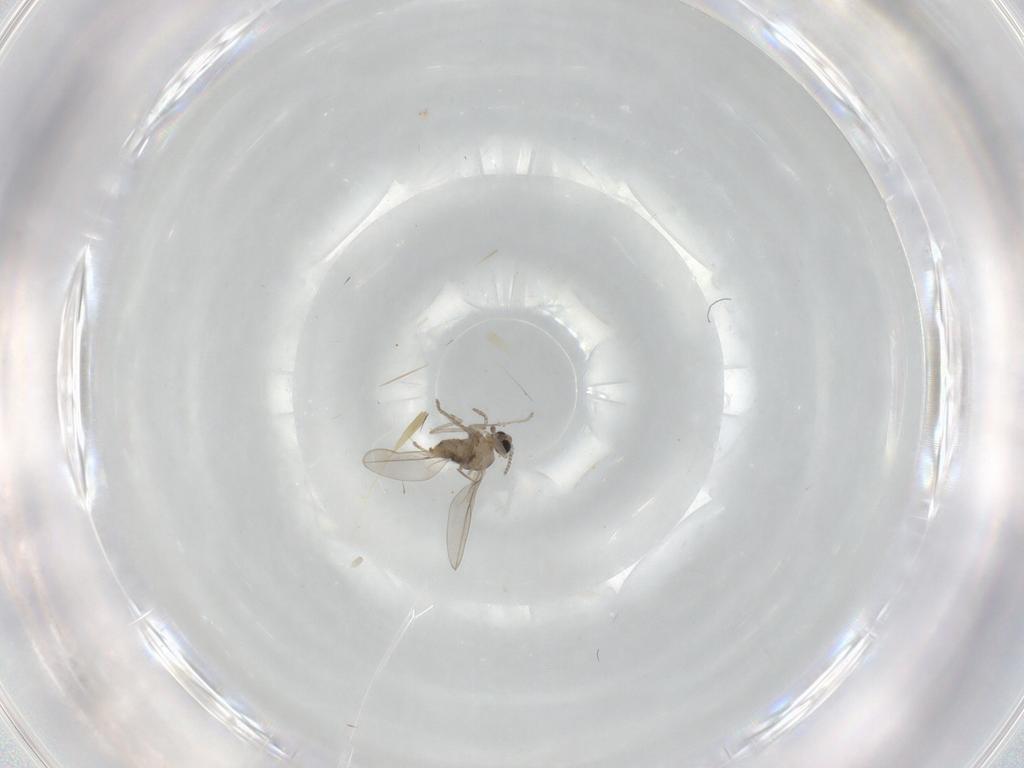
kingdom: Animalia
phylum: Arthropoda
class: Insecta
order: Diptera
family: Cecidomyiidae
